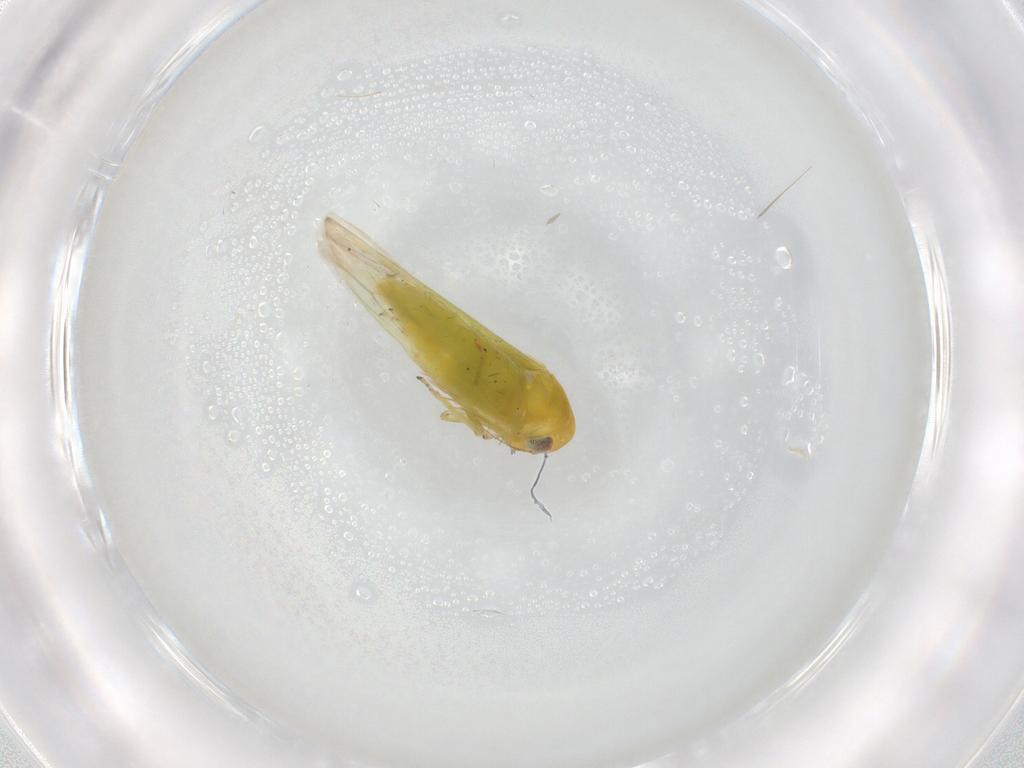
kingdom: Animalia
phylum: Arthropoda
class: Insecta
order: Hemiptera
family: Cicadellidae
